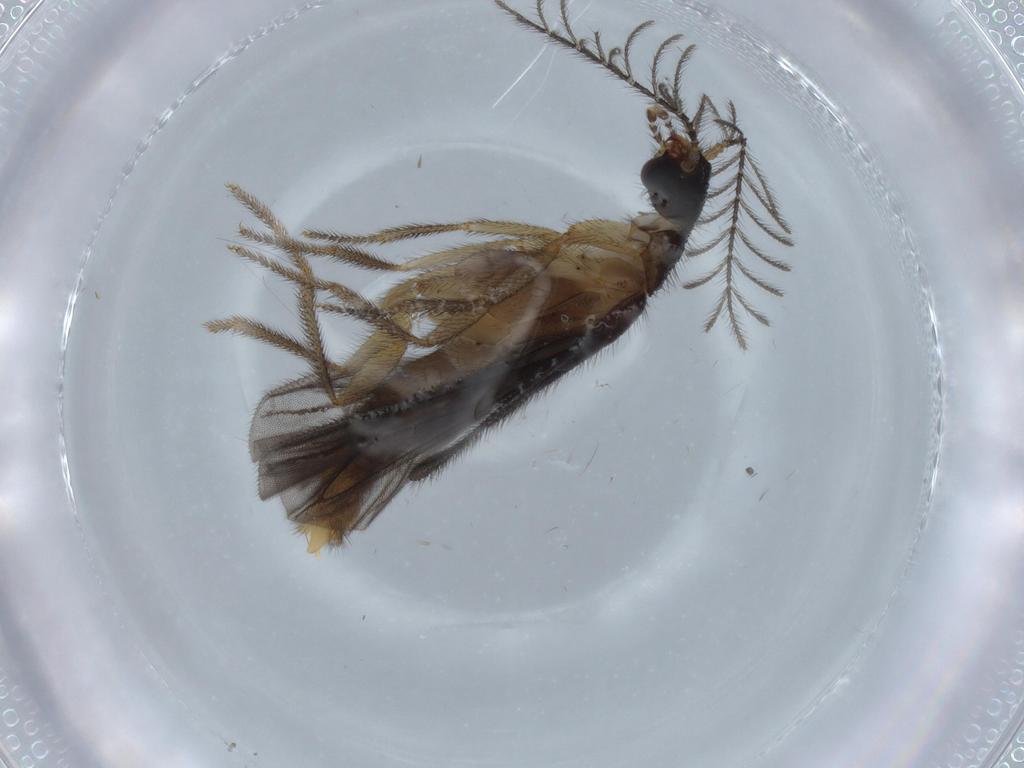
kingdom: Animalia
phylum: Arthropoda
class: Insecta
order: Coleoptera
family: Phengodidae
